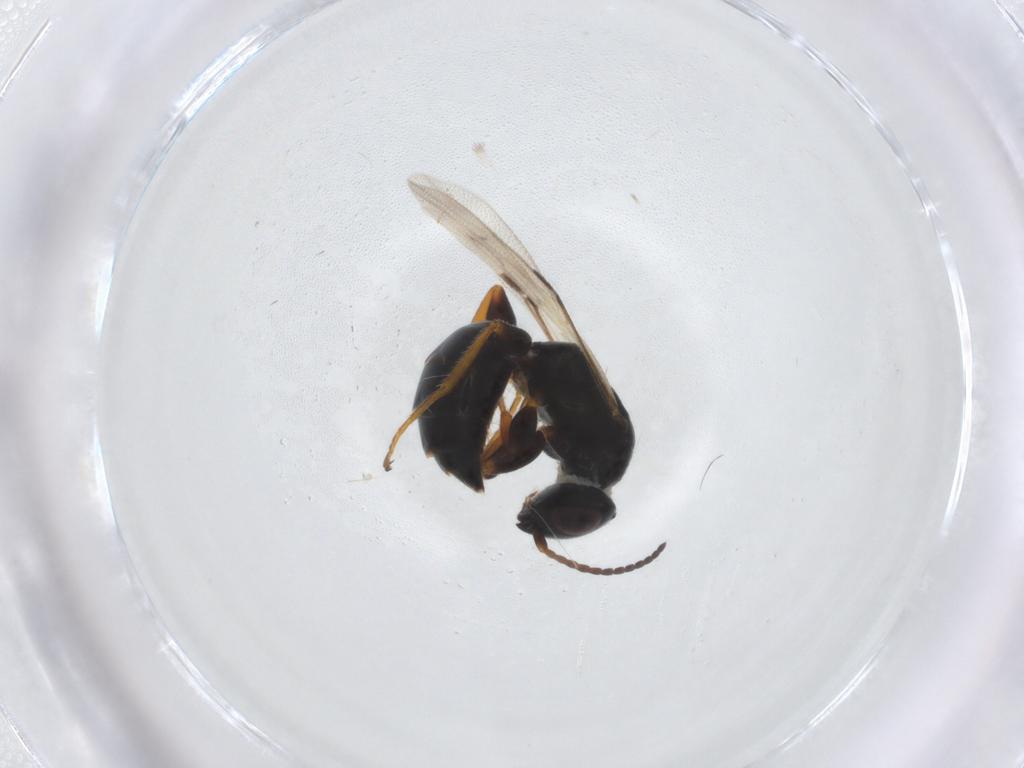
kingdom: Animalia
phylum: Arthropoda
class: Insecta
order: Hymenoptera
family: Bethylidae
